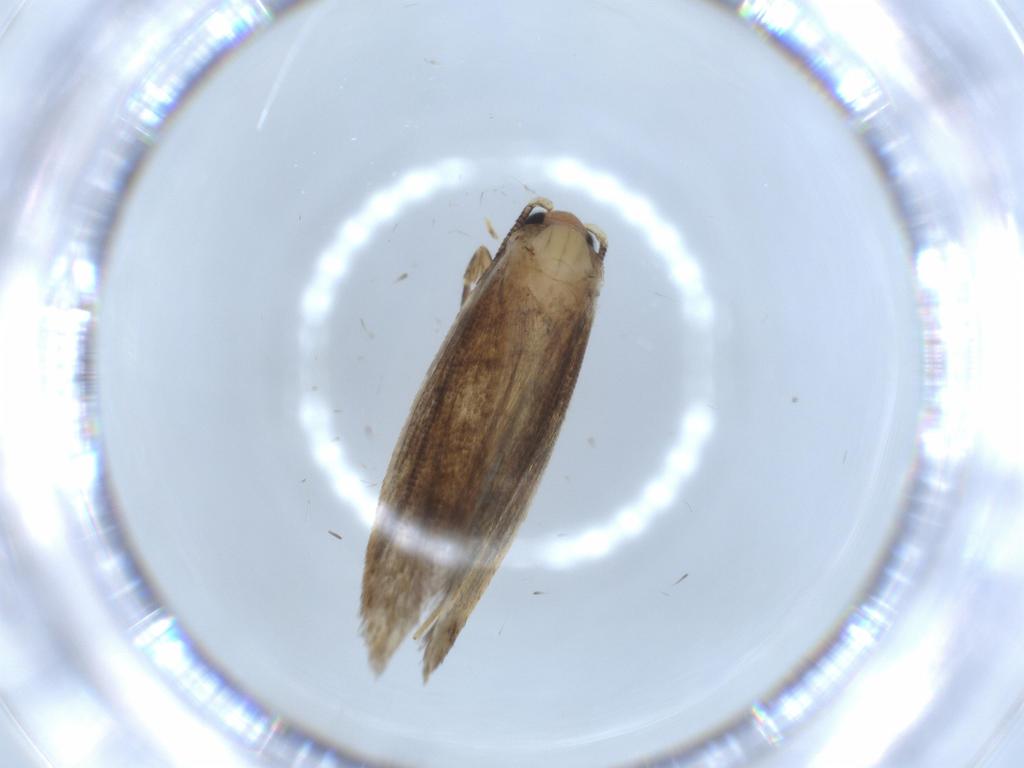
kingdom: Animalia
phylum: Arthropoda
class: Insecta
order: Lepidoptera
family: Tineidae
